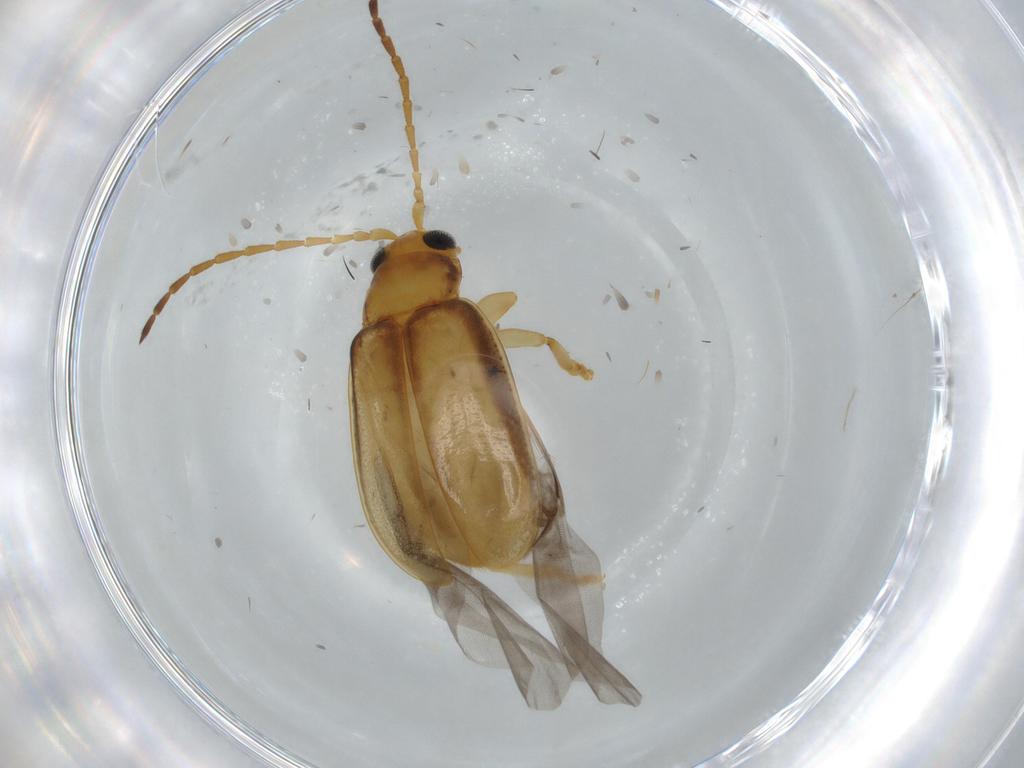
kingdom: Animalia
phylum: Arthropoda
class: Insecta
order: Coleoptera
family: Chrysomelidae
